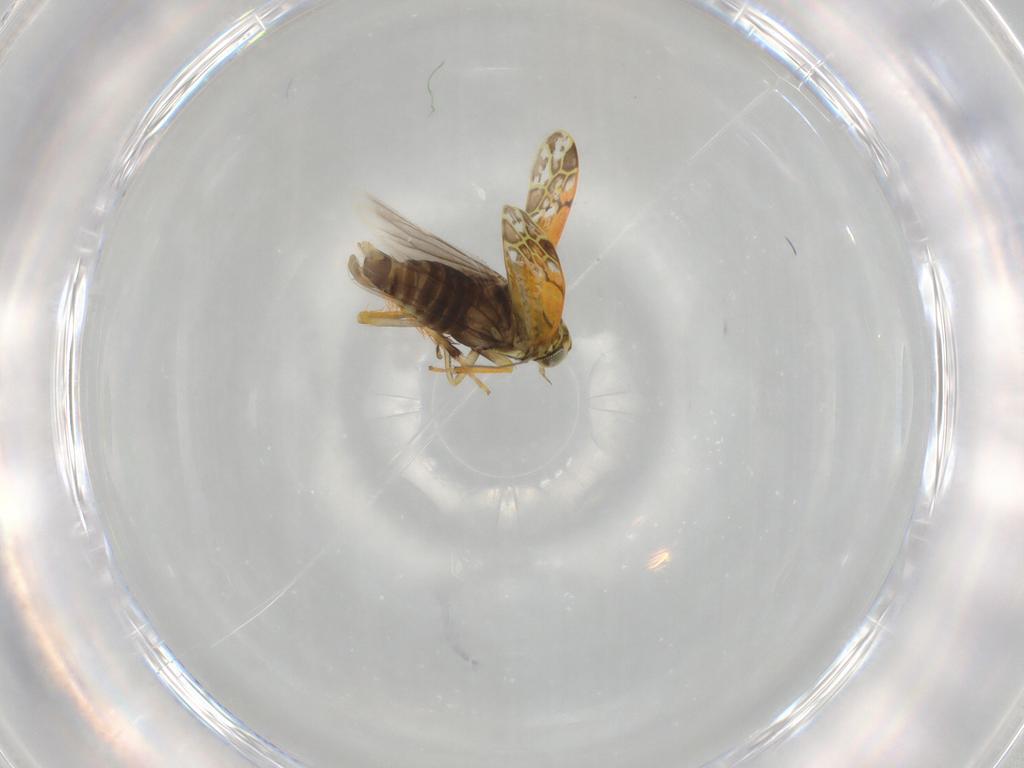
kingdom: Animalia
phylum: Arthropoda
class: Insecta
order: Hemiptera
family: Cicadellidae
